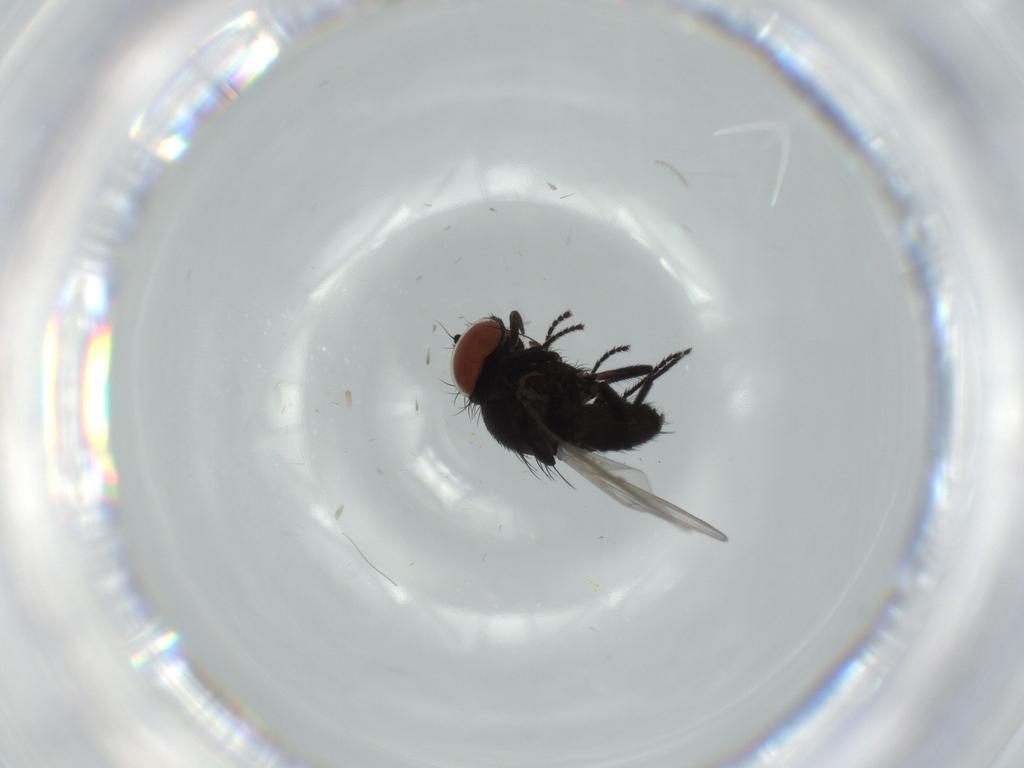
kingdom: Animalia
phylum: Arthropoda
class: Insecta
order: Diptera
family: Milichiidae
